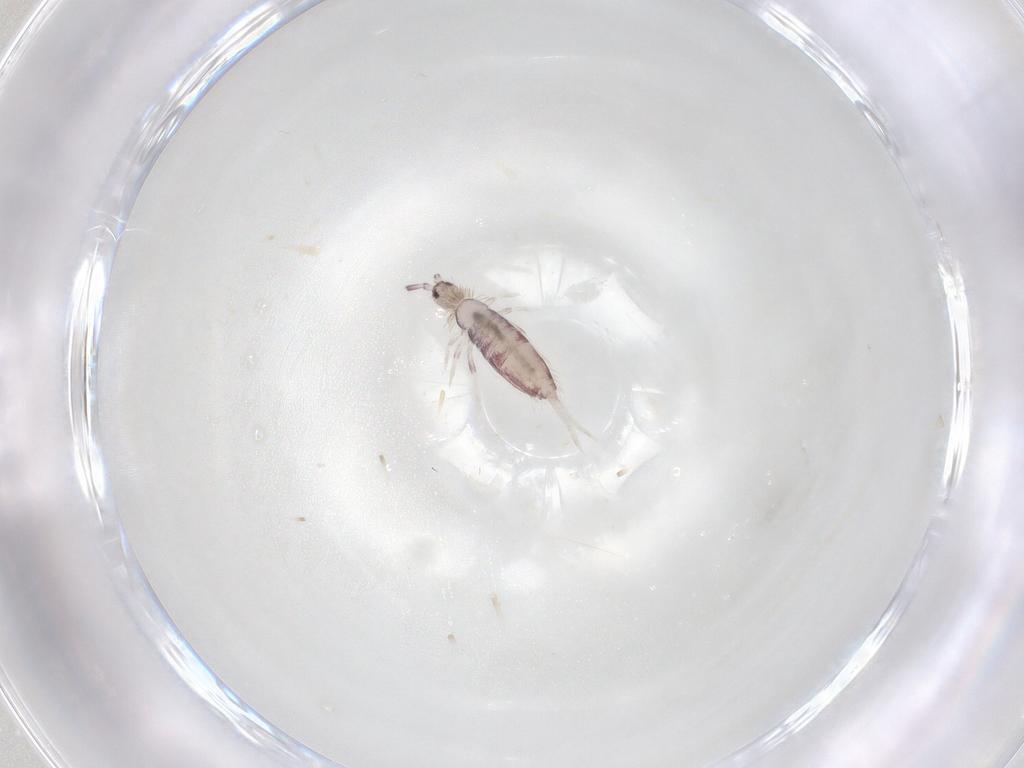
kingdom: Animalia
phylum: Arthropoda
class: Collembola
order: Entomobryomorpha
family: Entomobryidae
